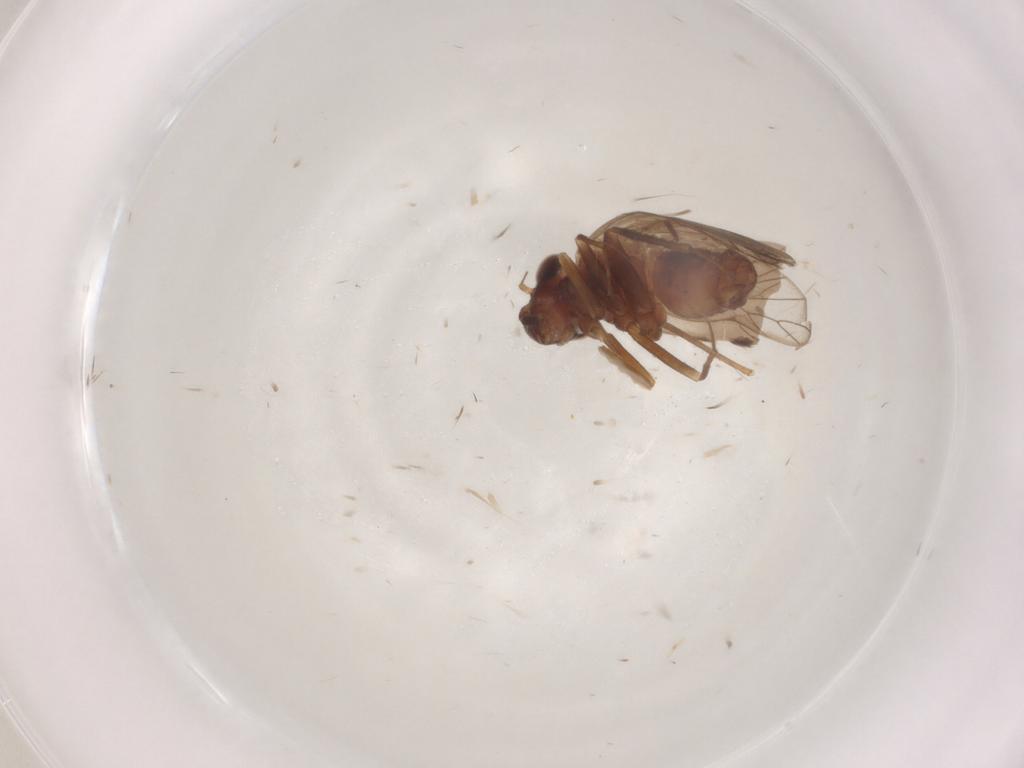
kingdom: Animalia
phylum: Arthropoda
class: Insecta
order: Psocodea
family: Lepidopsocidae
